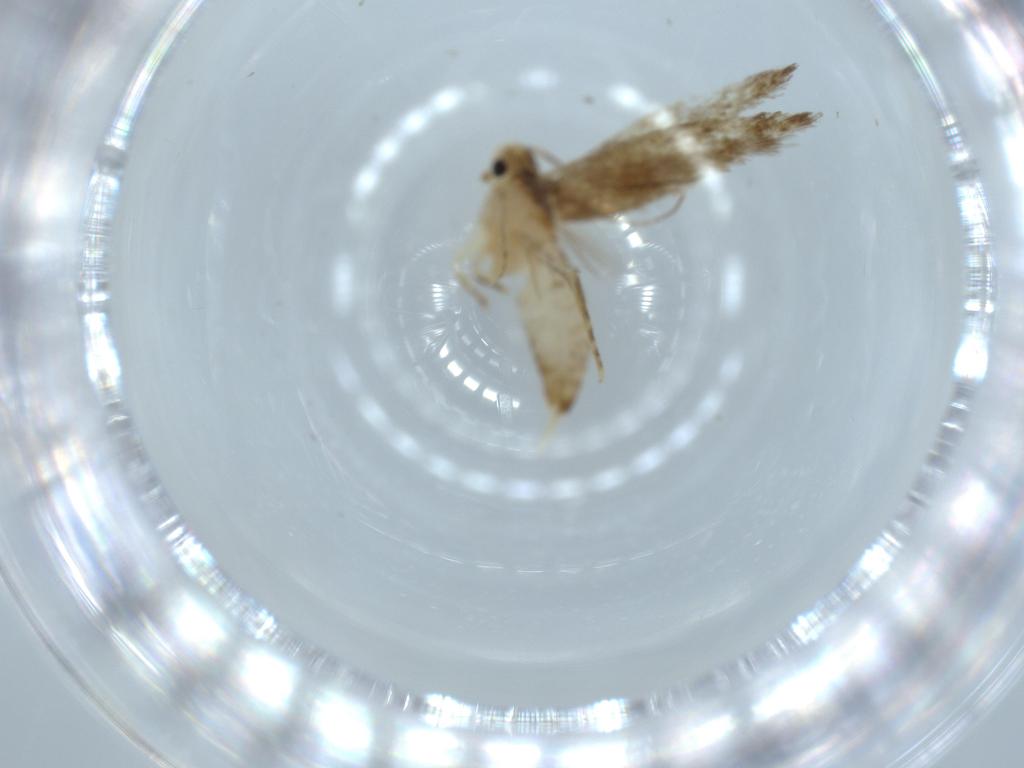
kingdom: Animalia
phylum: Arthropoda
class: Insecta
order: Lepidoptera
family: Tineidae
